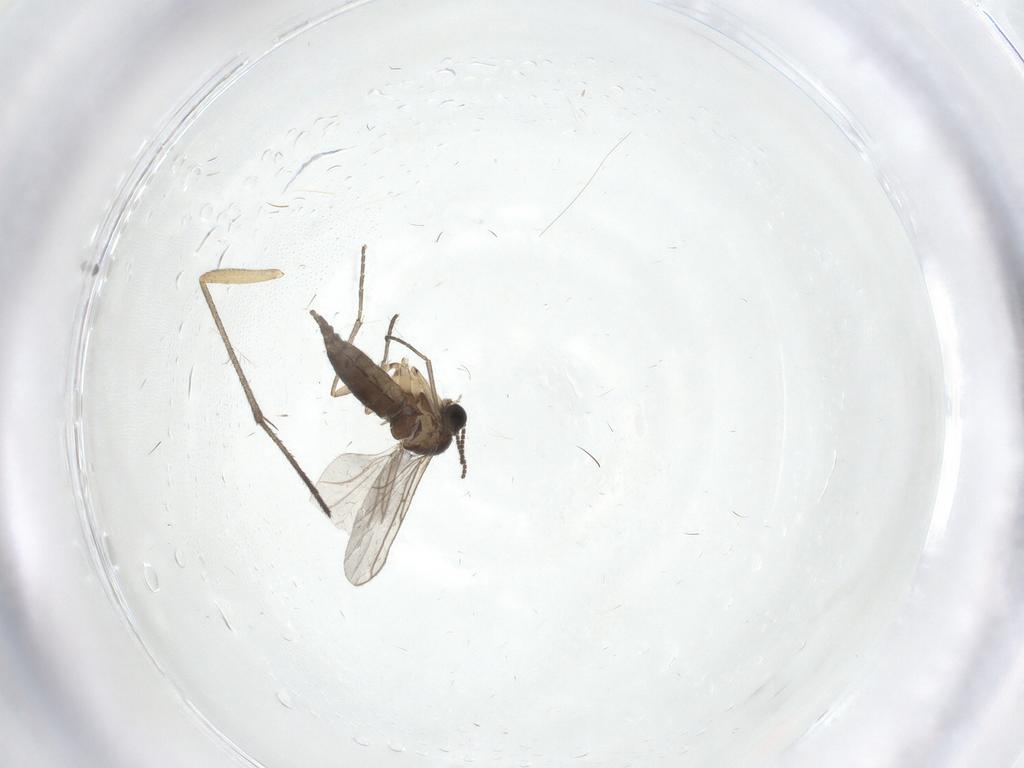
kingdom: Animalia
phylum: Arthropoda
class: Insecta
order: Diptera
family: Sciaridae
